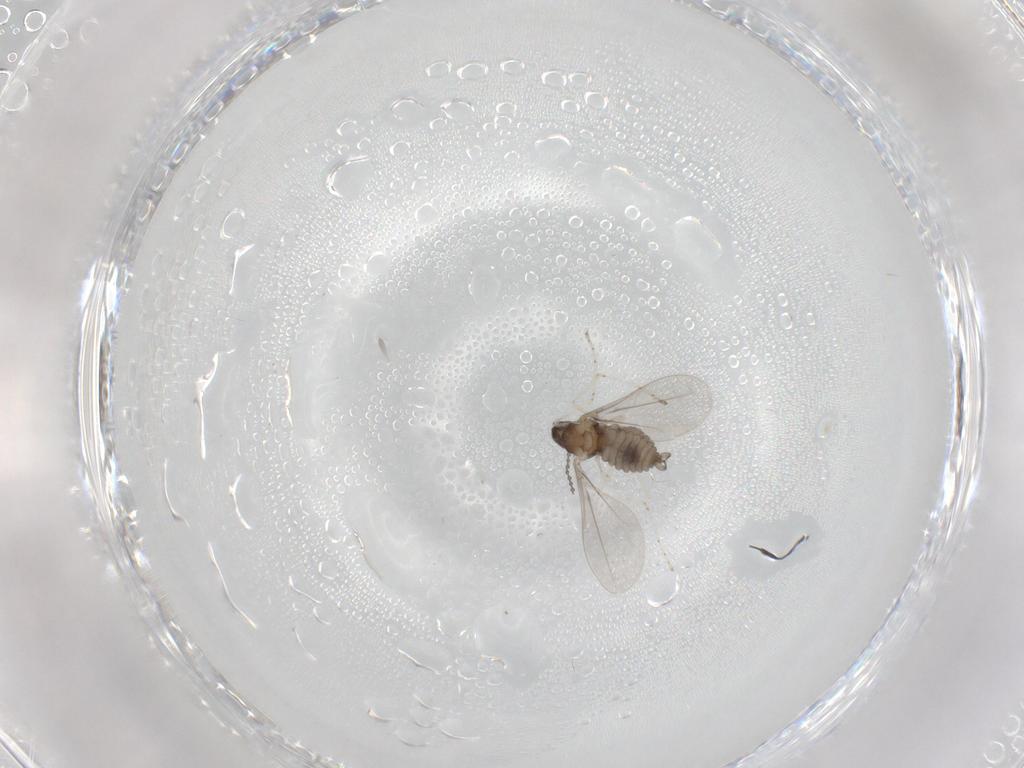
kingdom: Animalia
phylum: Arthropoda
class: Insecta
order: Diptera
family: Cecidomyiidae
